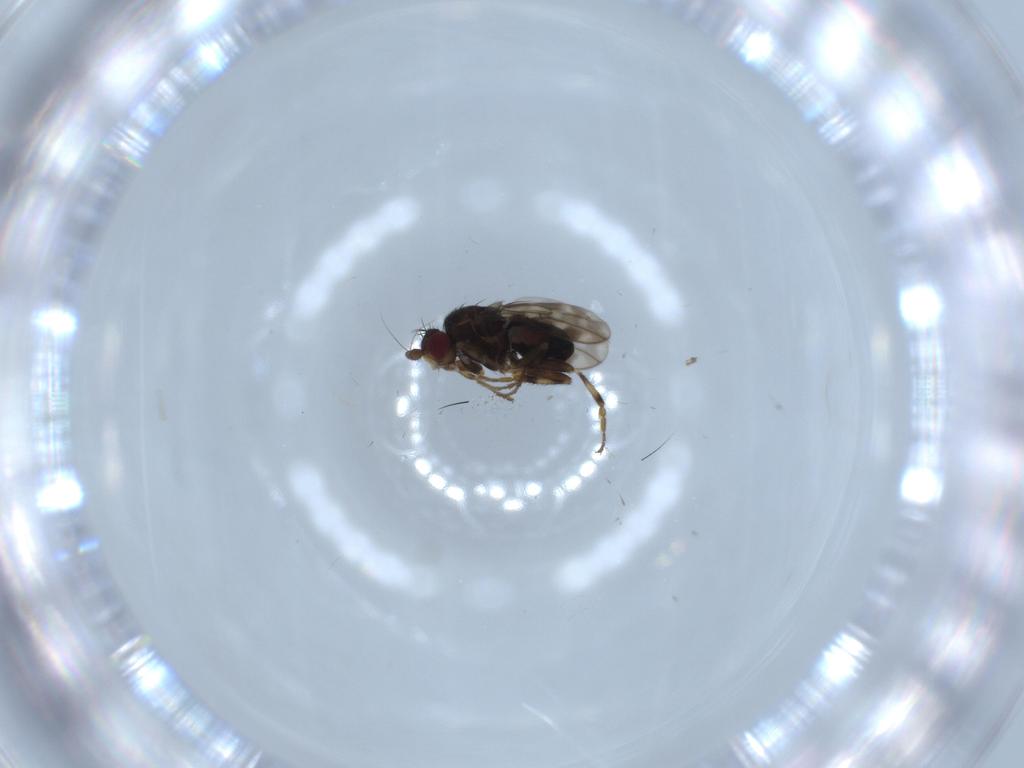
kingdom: Animalia
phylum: Arthropoda
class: Insecta
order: Diptera
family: Sphaeroceridae
